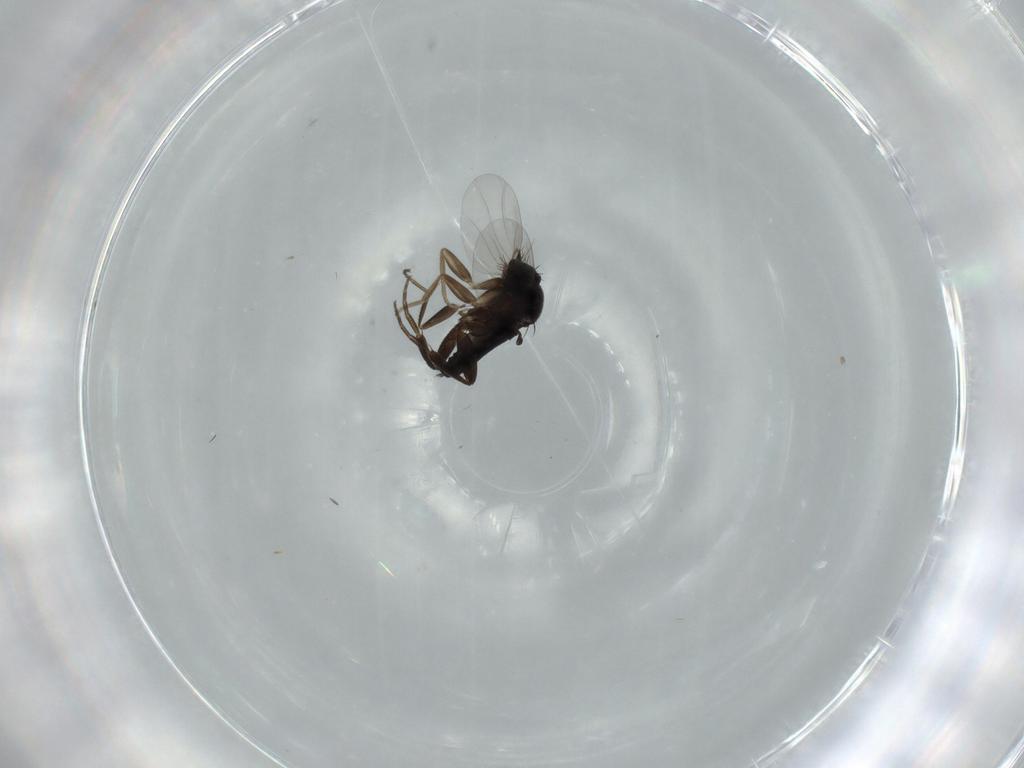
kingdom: Animalia
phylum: Arthropoda
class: Insecta
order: Diptera
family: Phoridae
